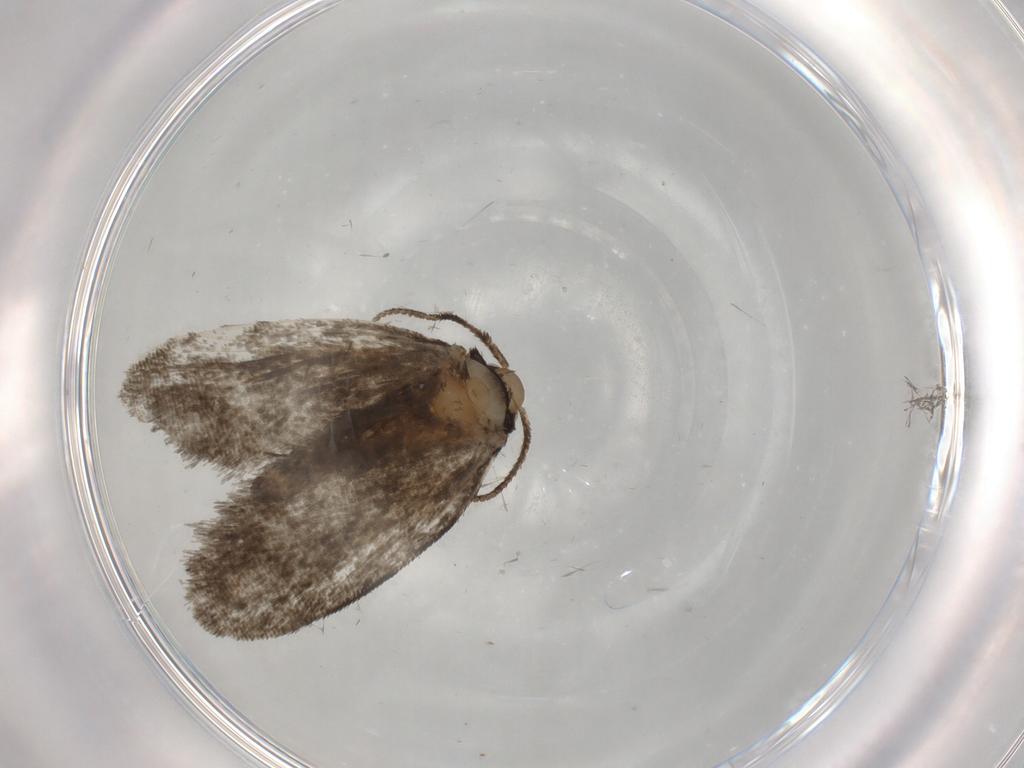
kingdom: Animalia
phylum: Arthropoda
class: Insecta
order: Lepidoptera
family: Psychidae
